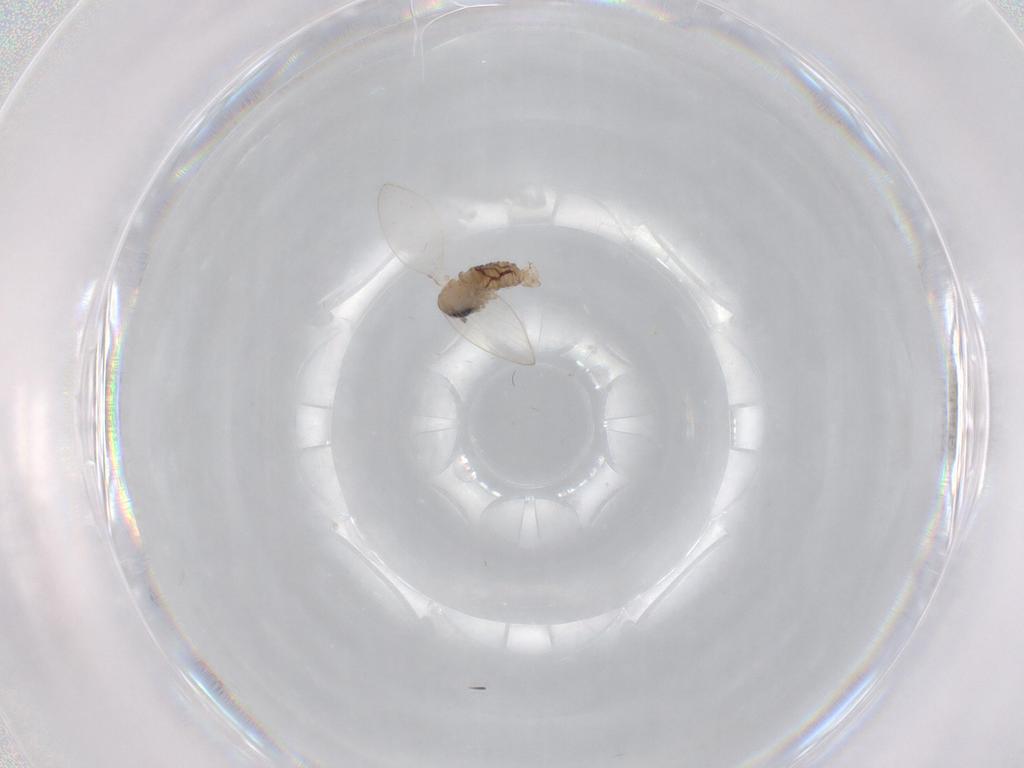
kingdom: Animalia
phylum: Arthropoda
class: Insecta
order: Diptera
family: Psychodidae
